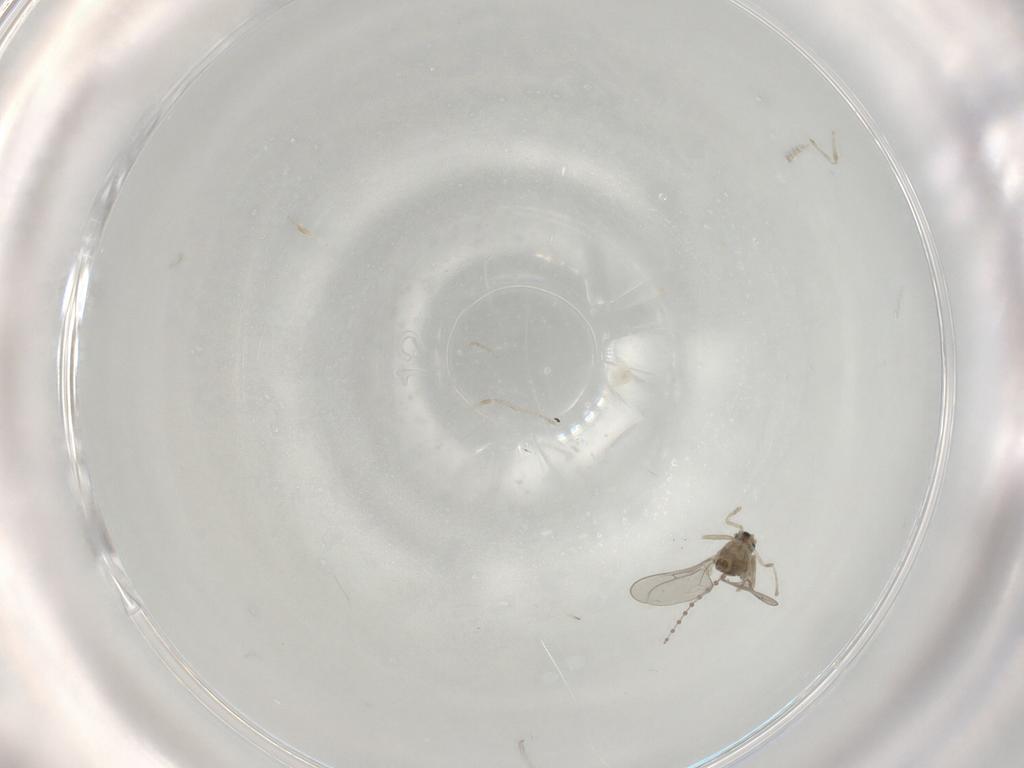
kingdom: Animalia
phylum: Arthropoda
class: Insecta
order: Diptera
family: Cecidomyiidae
